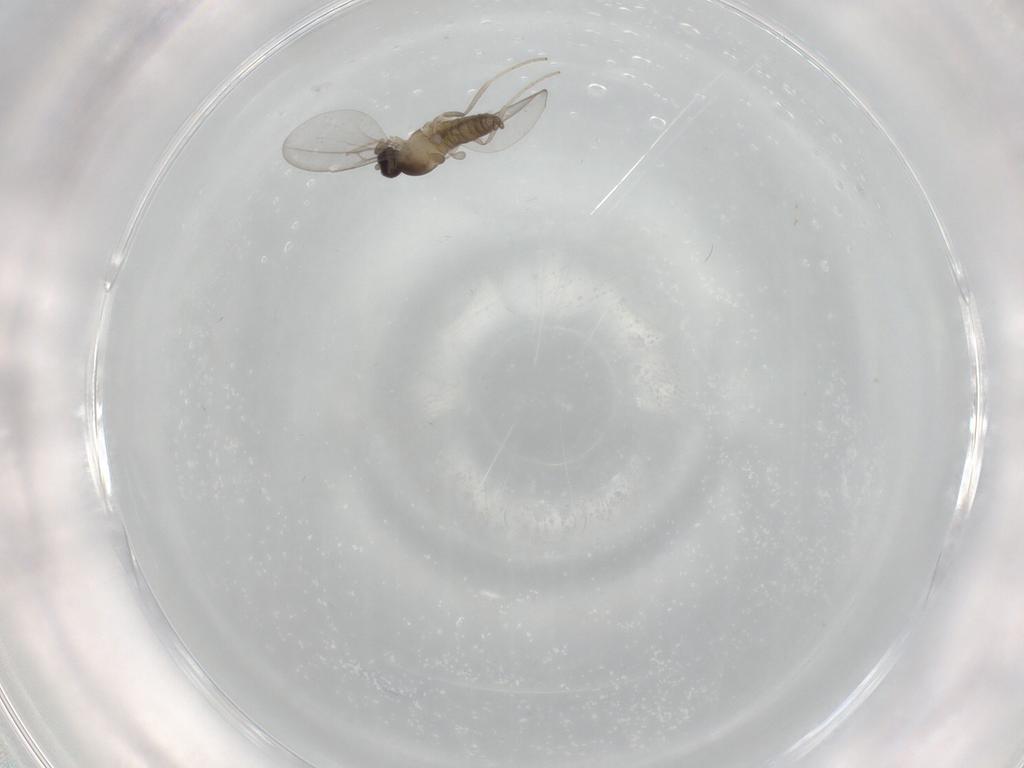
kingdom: Animalia
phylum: Arthropoda
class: Insecta
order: Diptera
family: Cecidomyiidae
